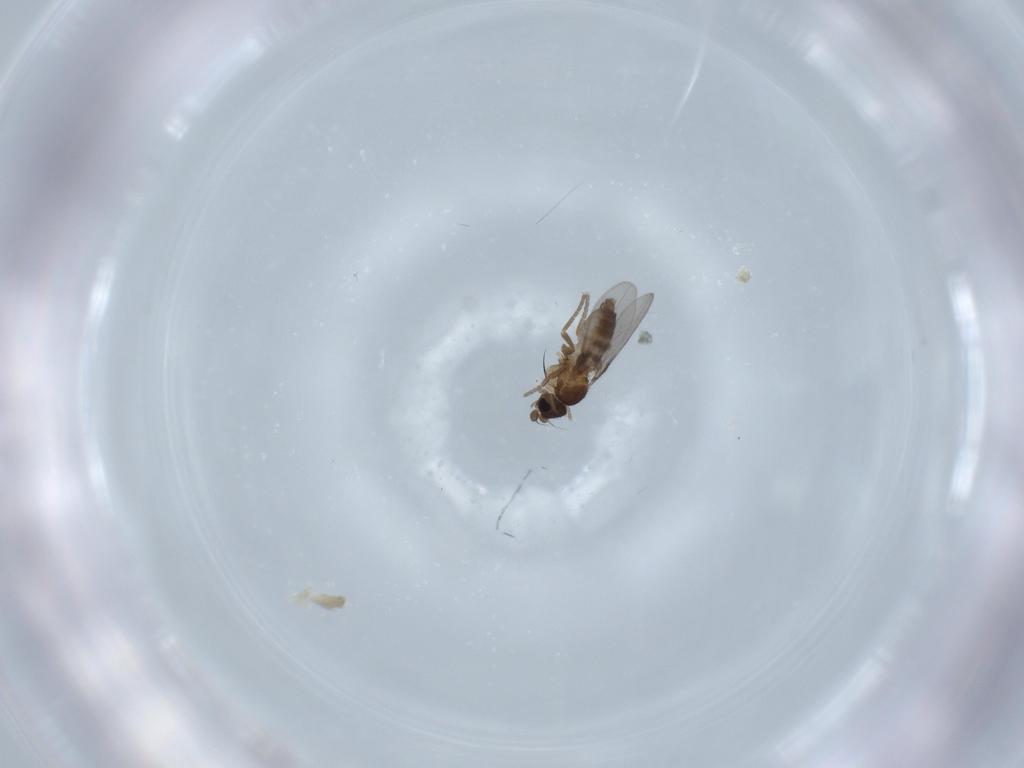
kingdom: Animalia
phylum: Arthropoda
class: Insecta
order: Diptera
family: Phoridae
